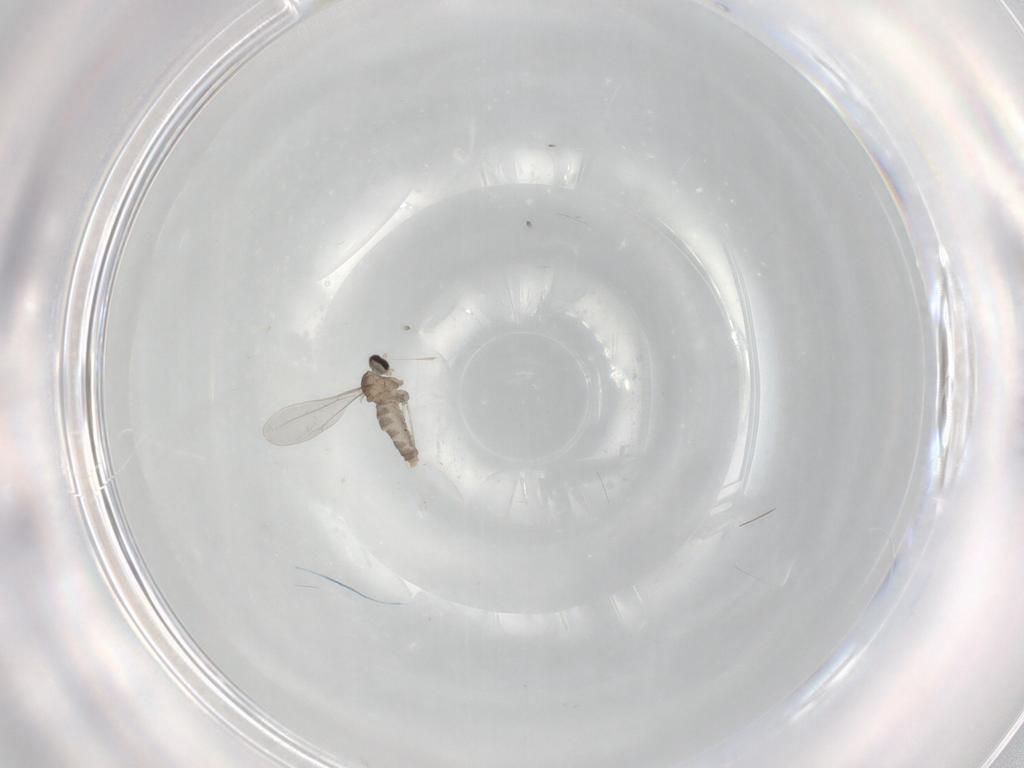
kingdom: Animalia
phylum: Arthropoda
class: Insecta
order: Diptera
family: Cecidomyiidae
